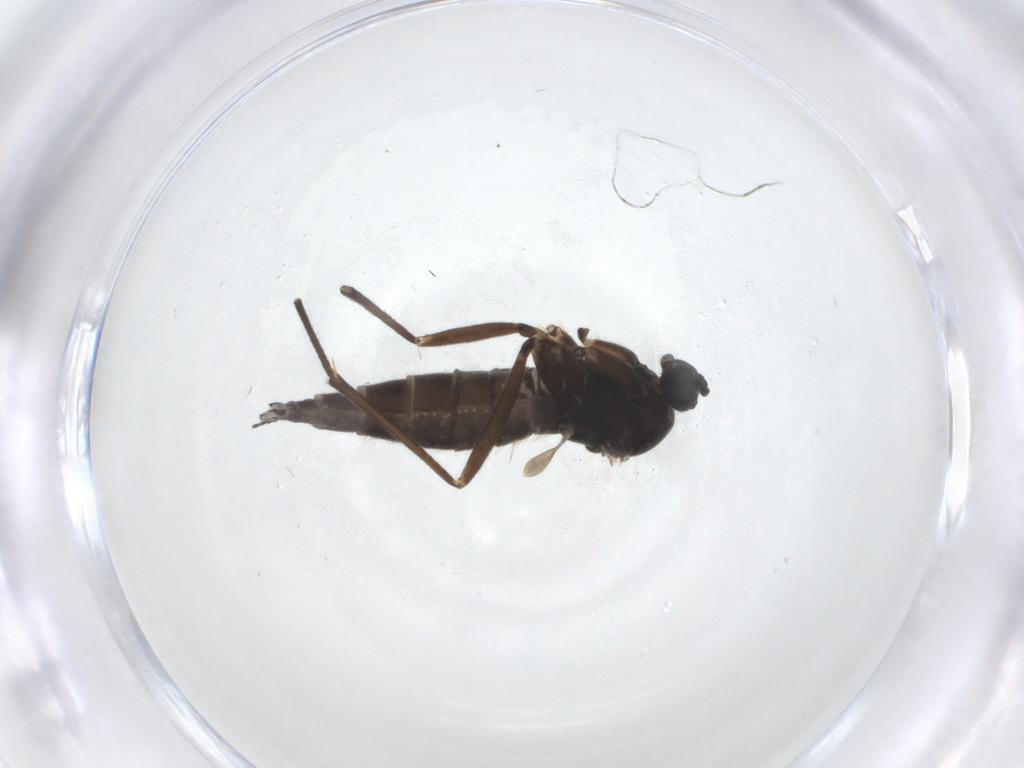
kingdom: Animalia
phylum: Arthropoda
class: Insecta
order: Diptera
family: Sciaridae
